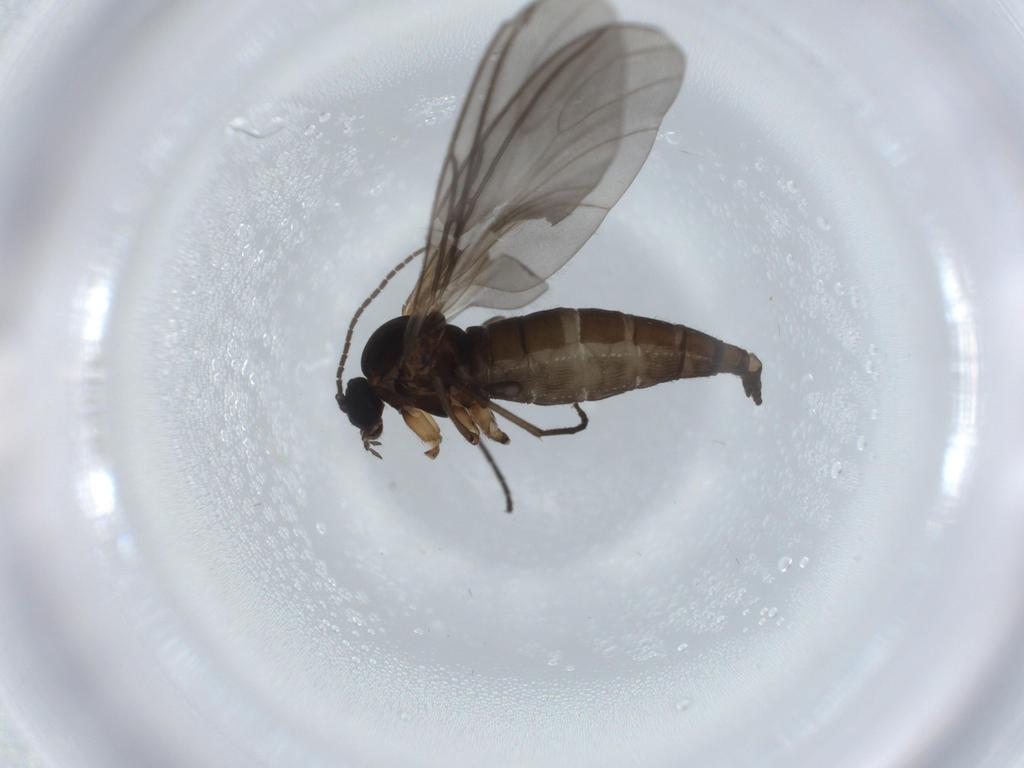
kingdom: Animalia
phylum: Arthropoda
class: Insecta
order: Diptera
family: Sciaridae
